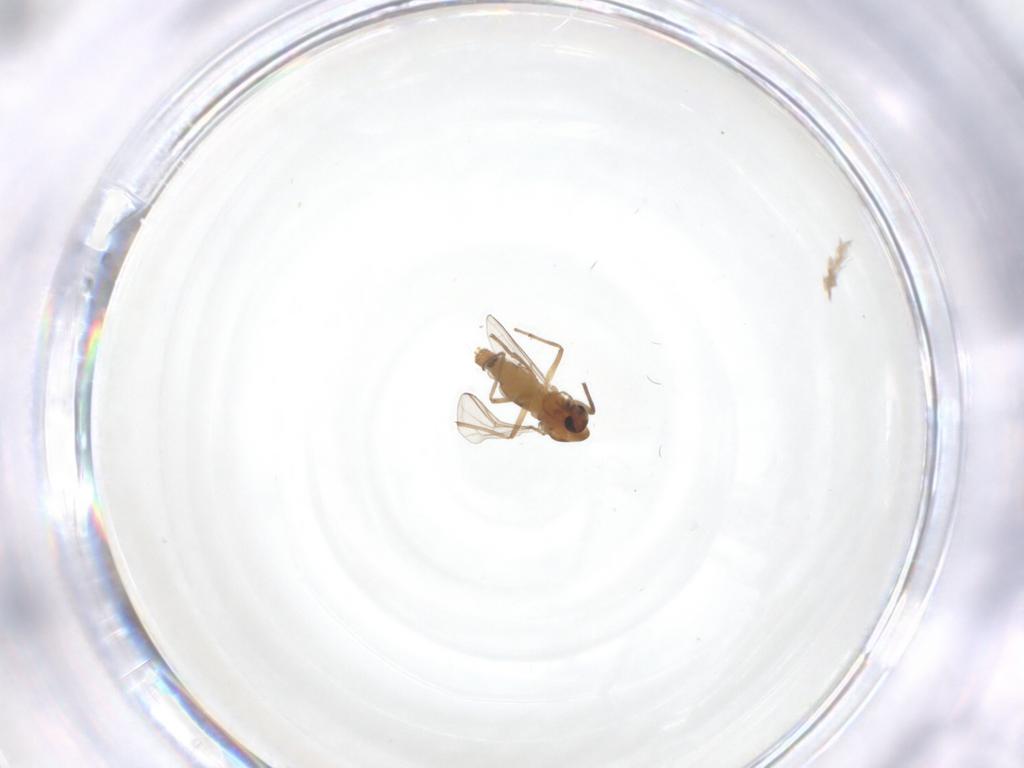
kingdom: Animalia
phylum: Arthropoda
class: Insecta
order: Diptera
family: Chironomidae
